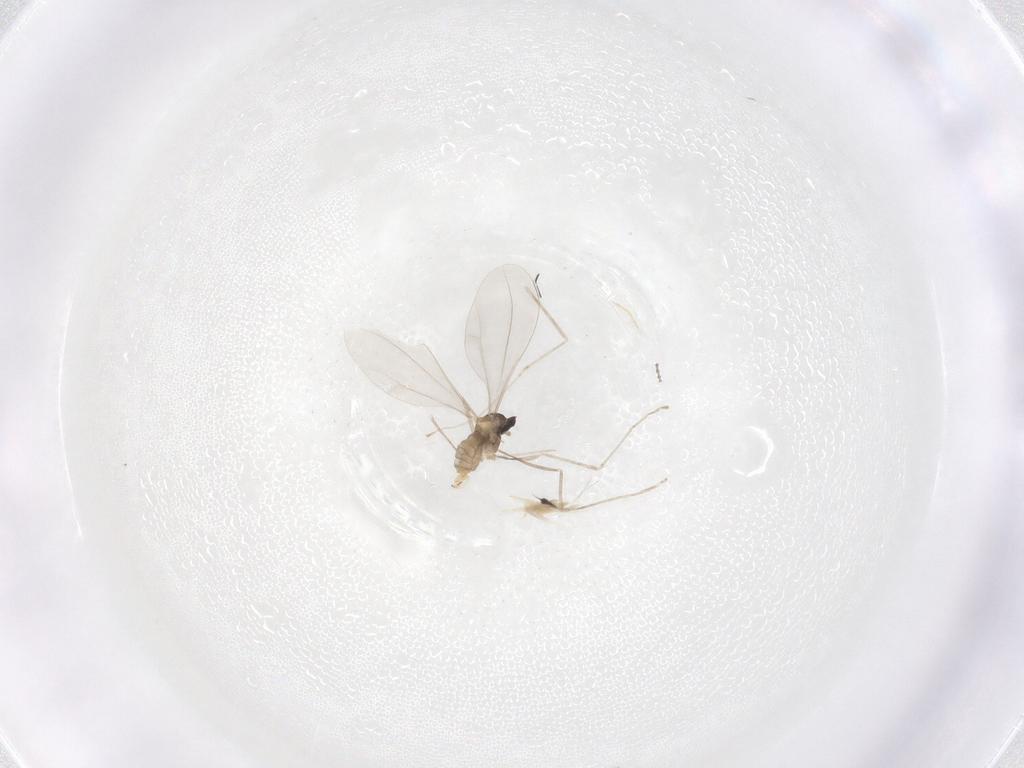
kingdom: Animalia
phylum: Arthropoda
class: Insecta
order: Diptera
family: Cecidomyiidae
